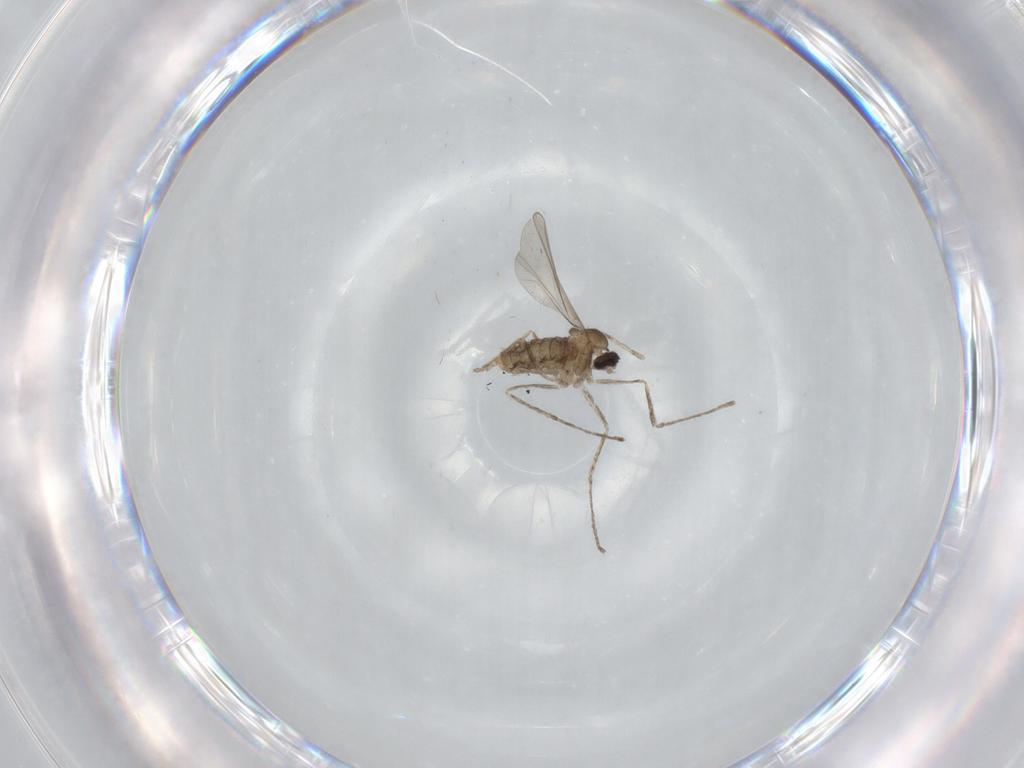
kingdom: Animalia
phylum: Arthropoda
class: Insecta
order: Diptera
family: Cecidomyiidae
